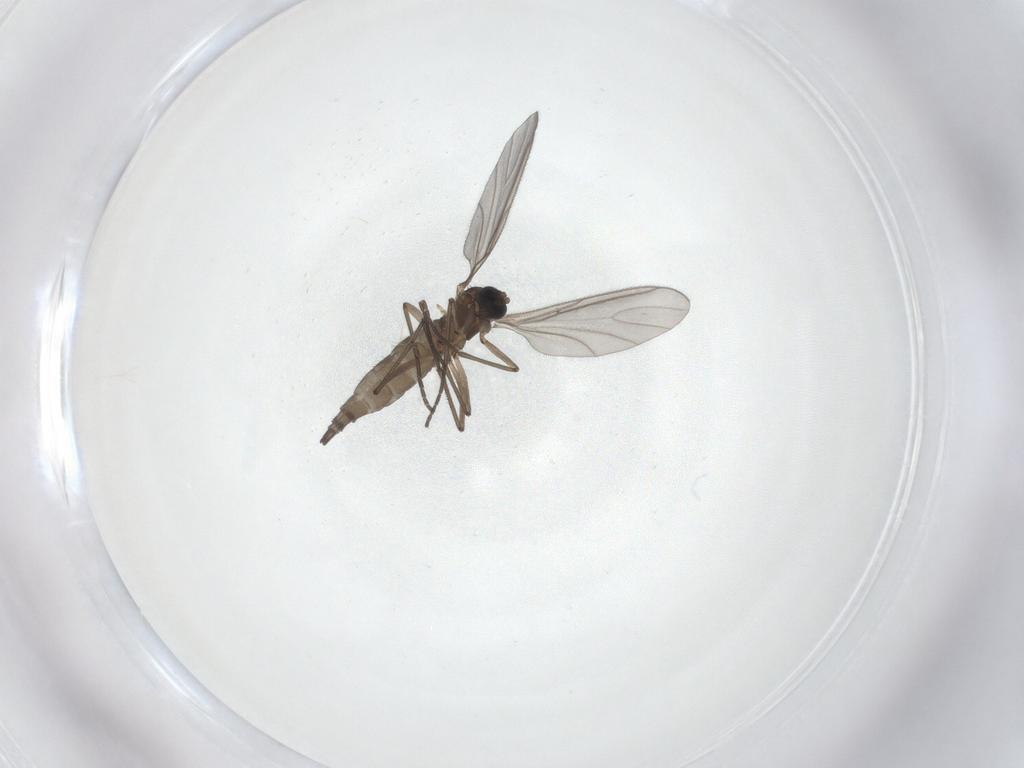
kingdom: Animalia
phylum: Arthropoda
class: Insecta
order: Diptera
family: Sciaridae
